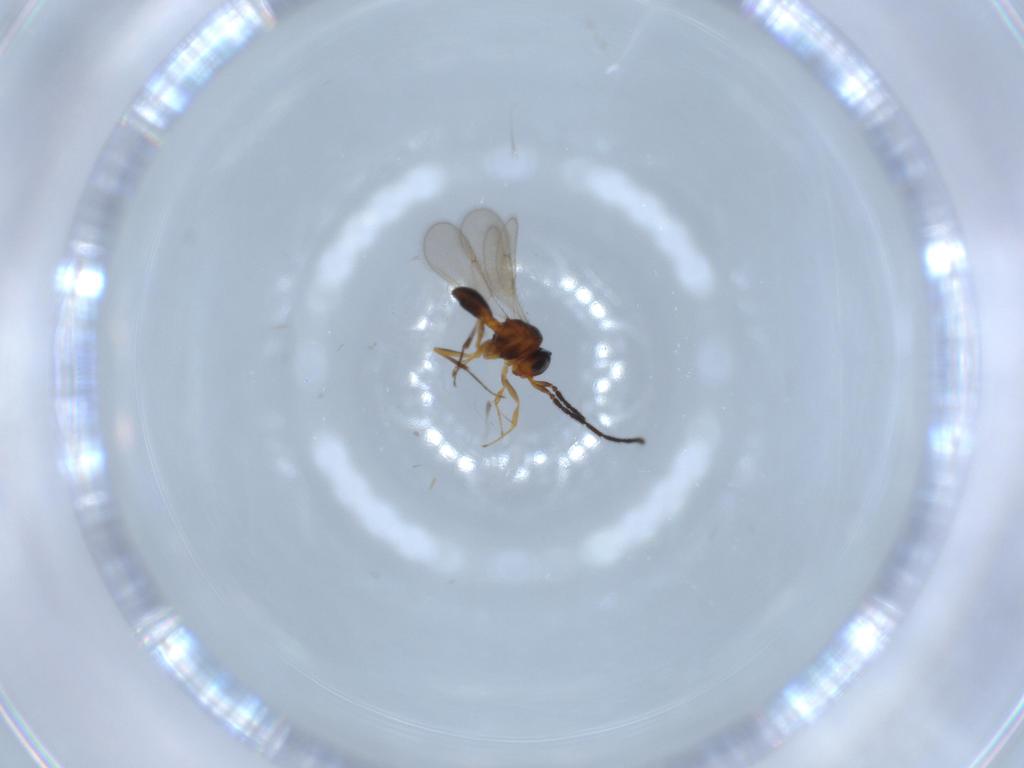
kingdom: Animalia
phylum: Arthropoda
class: Insecta
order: Hymenoptera
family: Scelionidae
